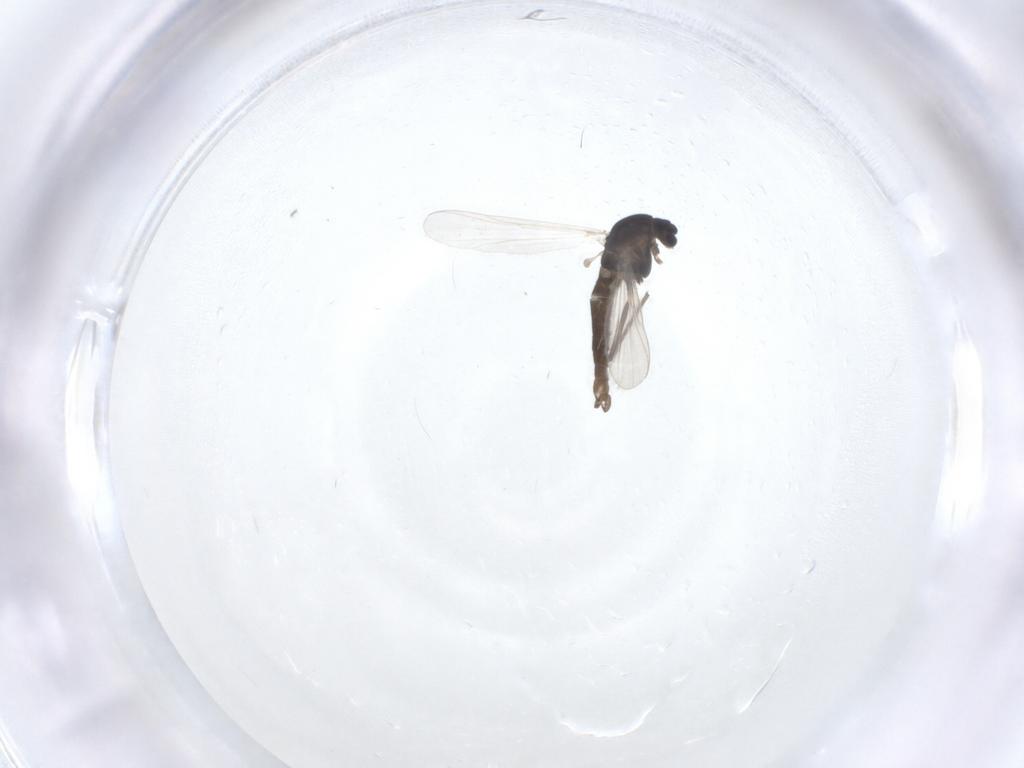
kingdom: Animalia
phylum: Arthropoda
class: Insecta
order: Diptera
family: Chironomidae
